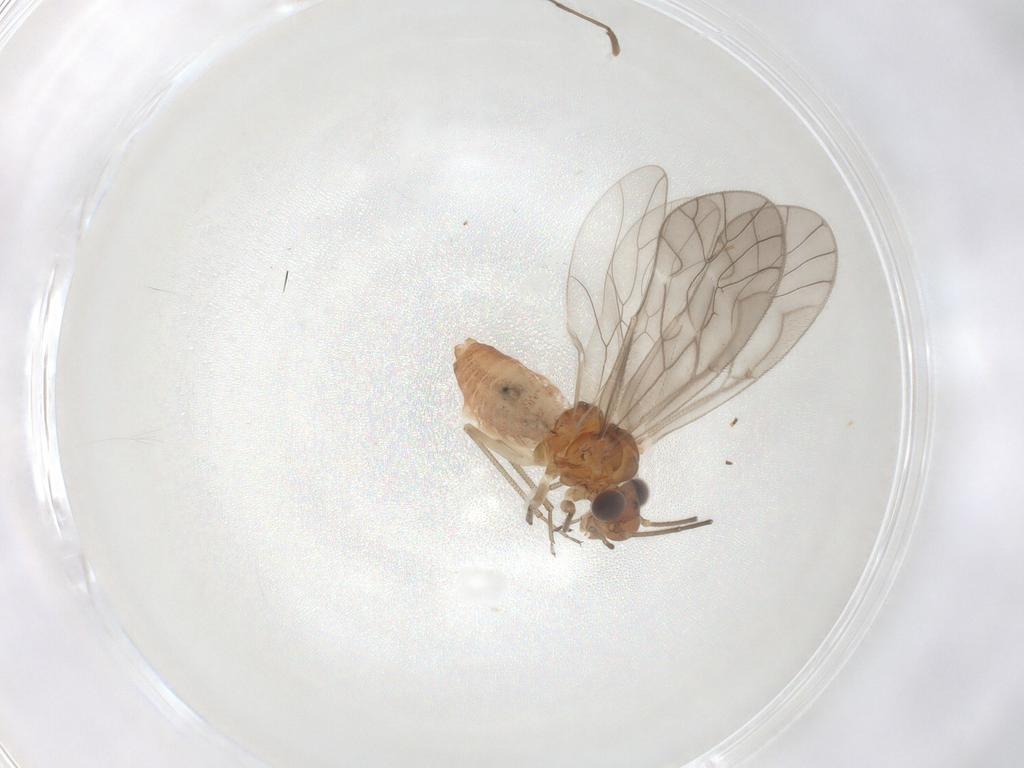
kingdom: Animalia
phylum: Arthropoda
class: Insecta
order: Psocodea
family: Caeciliusidae
